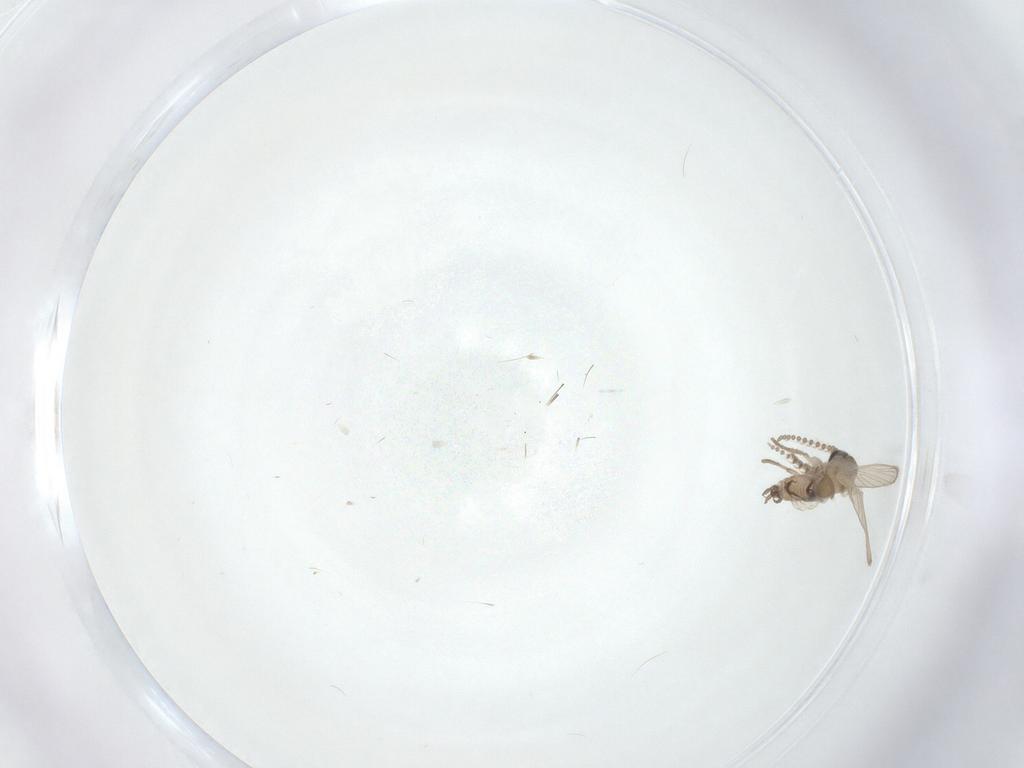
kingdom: Animalia
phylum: Arthropoda
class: Insecta
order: Diptera
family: Psychodidae
